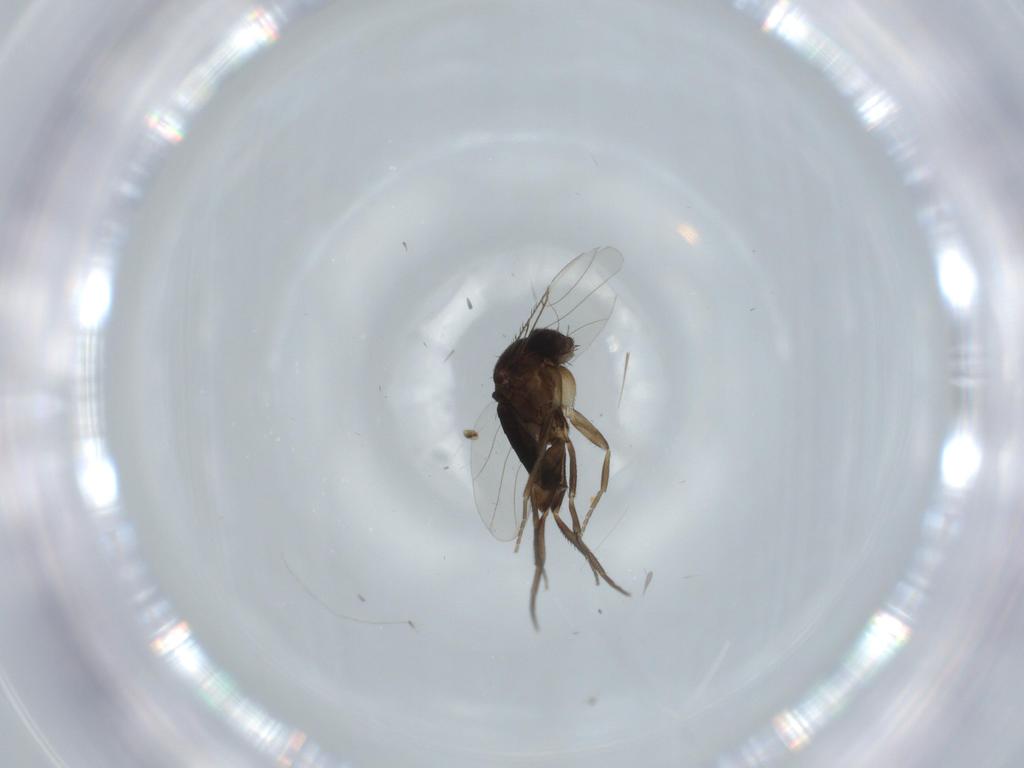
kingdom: Animalia
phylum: Arthropoda
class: Insecta
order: Diptera
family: Phoridae
